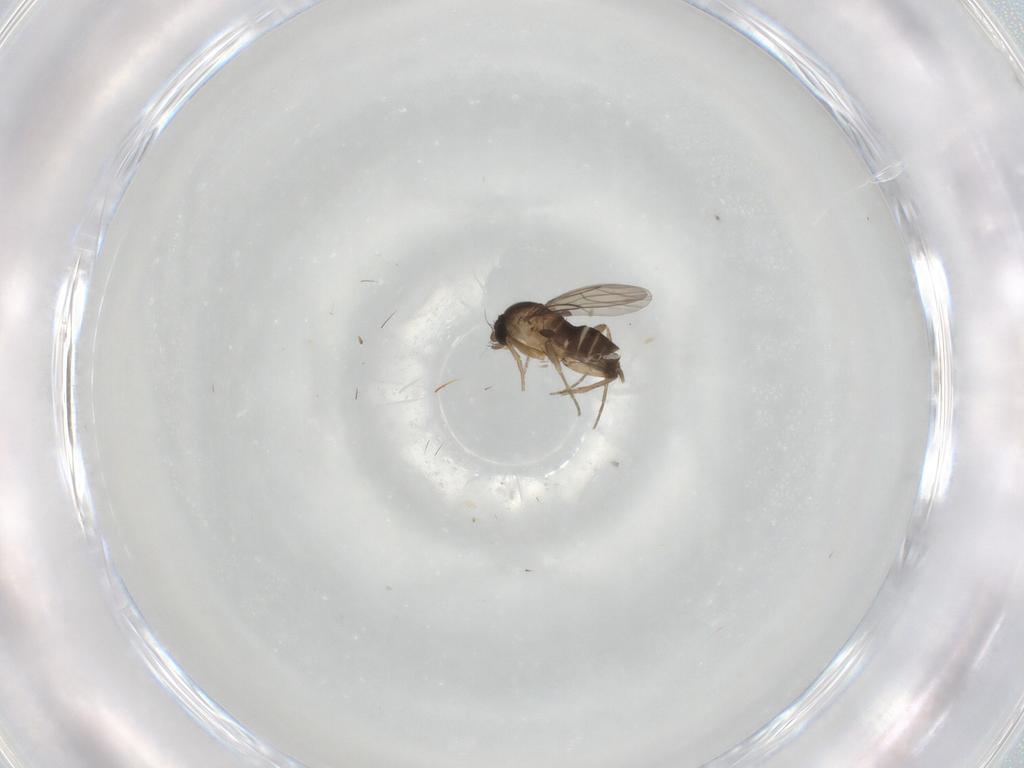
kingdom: Animalia
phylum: Arthropoda
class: Insecta
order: Diptera
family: Phoridae
